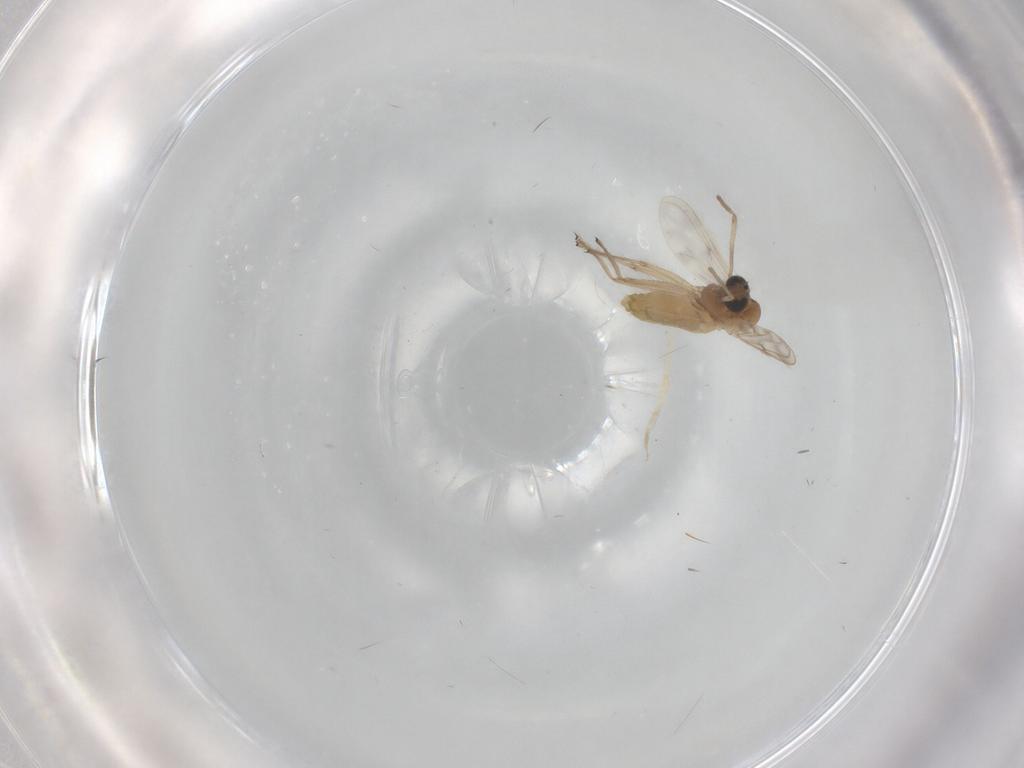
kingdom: Animalia
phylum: Arthropoda
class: Insecta
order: Diptera
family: Chironomidae
